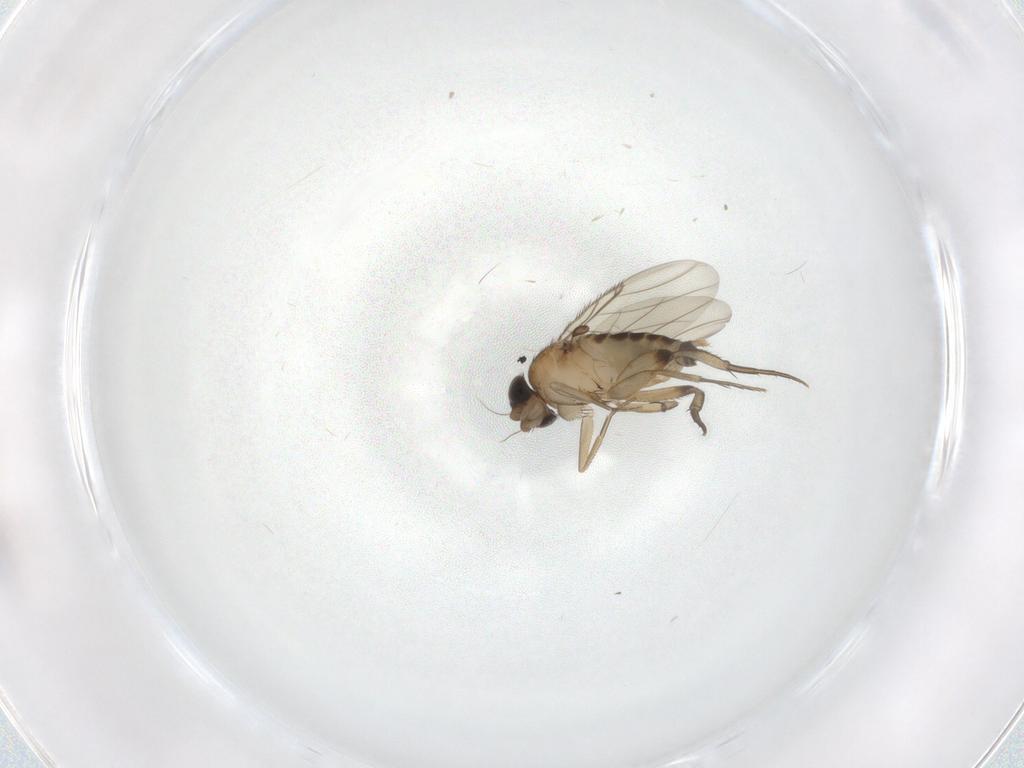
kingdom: Animalia
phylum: Arthropoda
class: Insecta
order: Diptera
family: Phoridae
